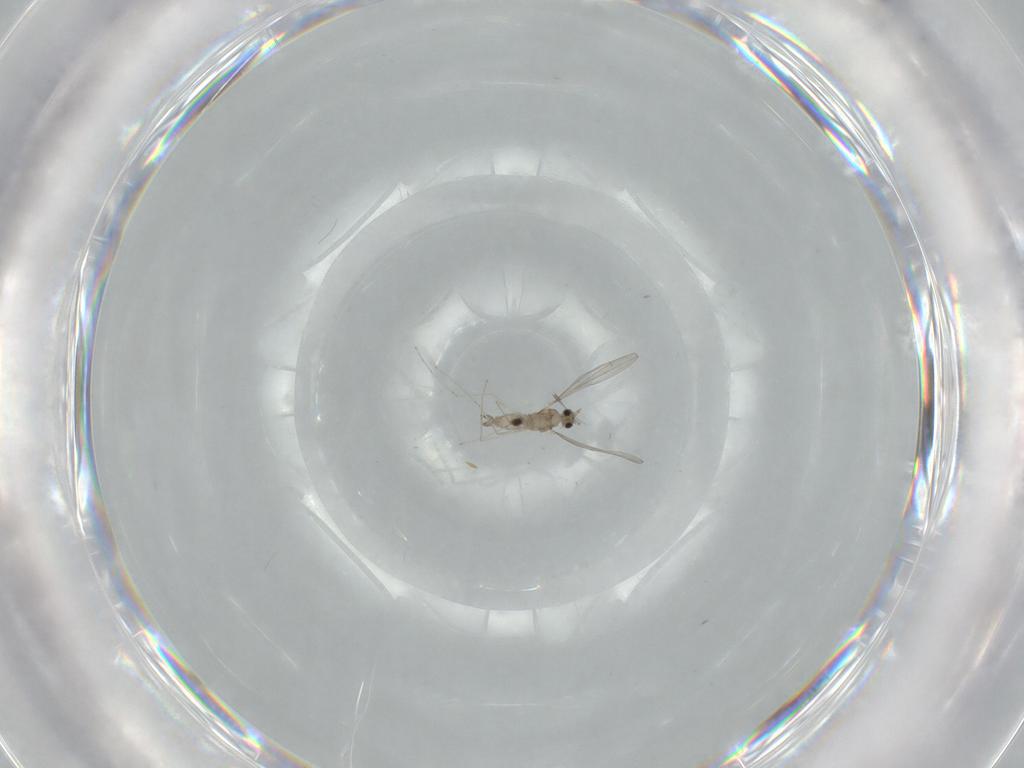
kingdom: Animalia
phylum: Arthropoda
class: Insecta
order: Diptera
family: Cecidomyiidae
